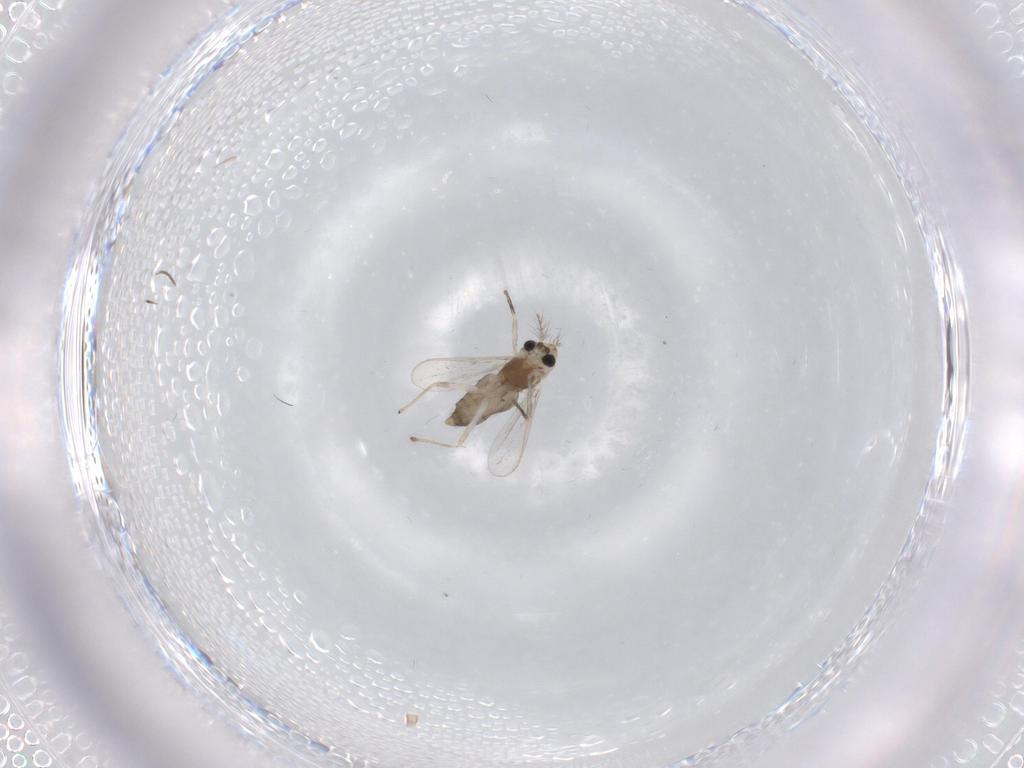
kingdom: Animalia
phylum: Arthropoda
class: Insecta
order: Diptera
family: Chironomidae
